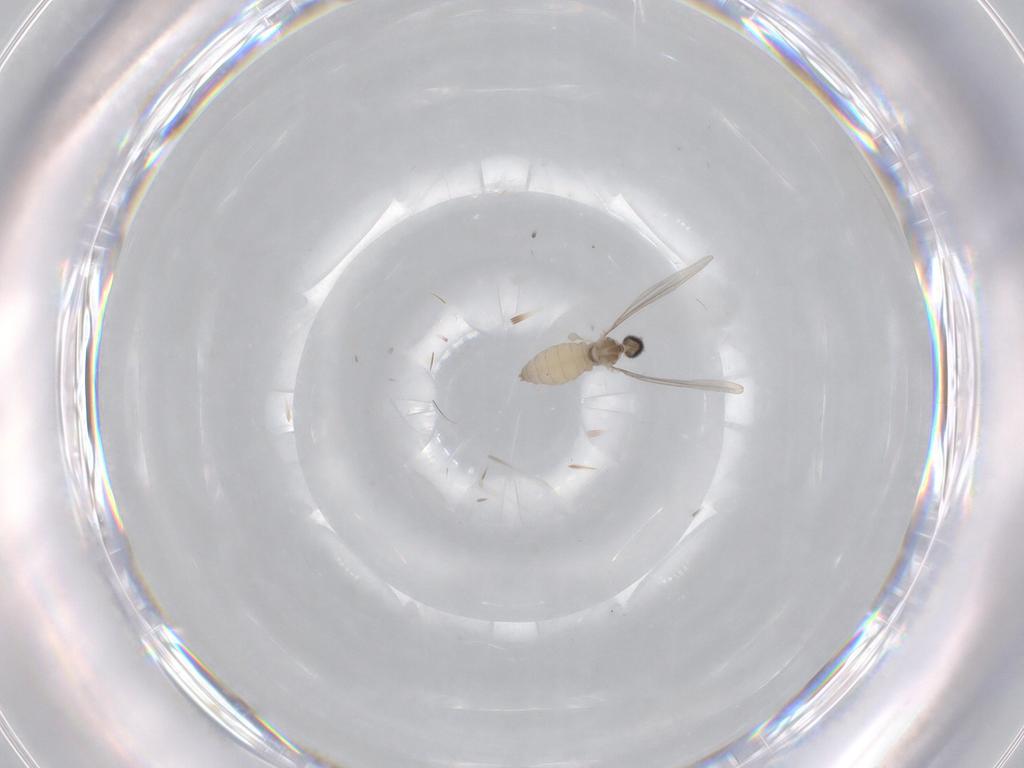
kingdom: Animalia
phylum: Arthropoda
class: Insecta
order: Diptera
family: Cecidomyiidae
